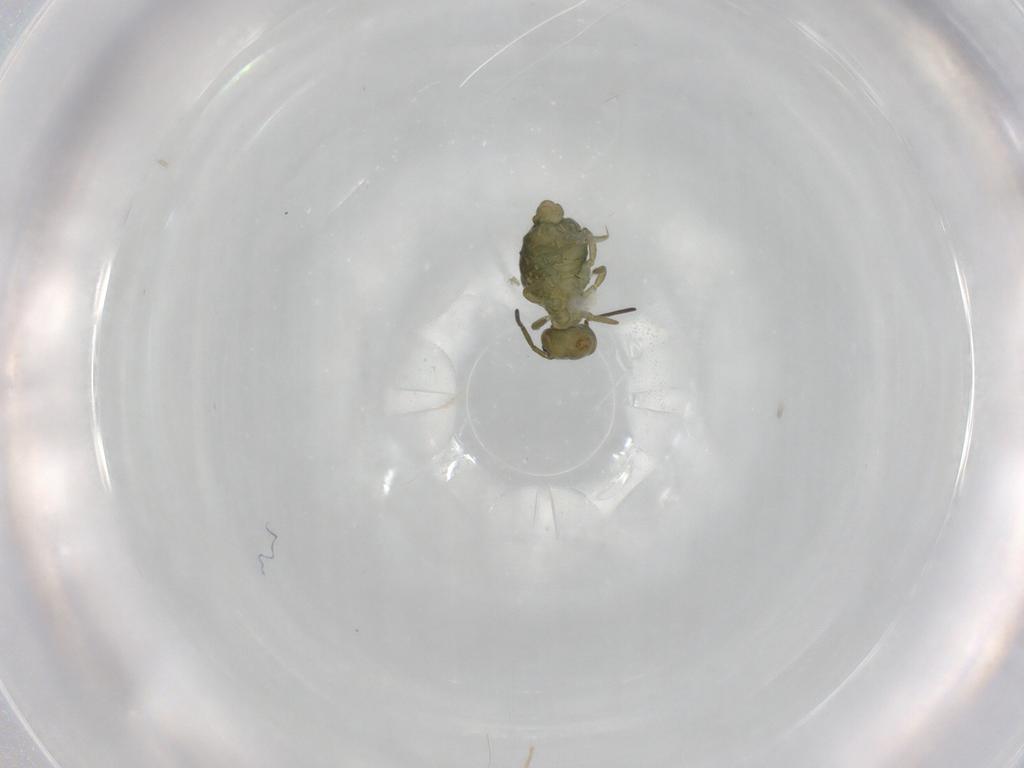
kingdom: Animalia
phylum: Arthropoda
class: Collembola
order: Symphypleona
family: Sminthuridae
